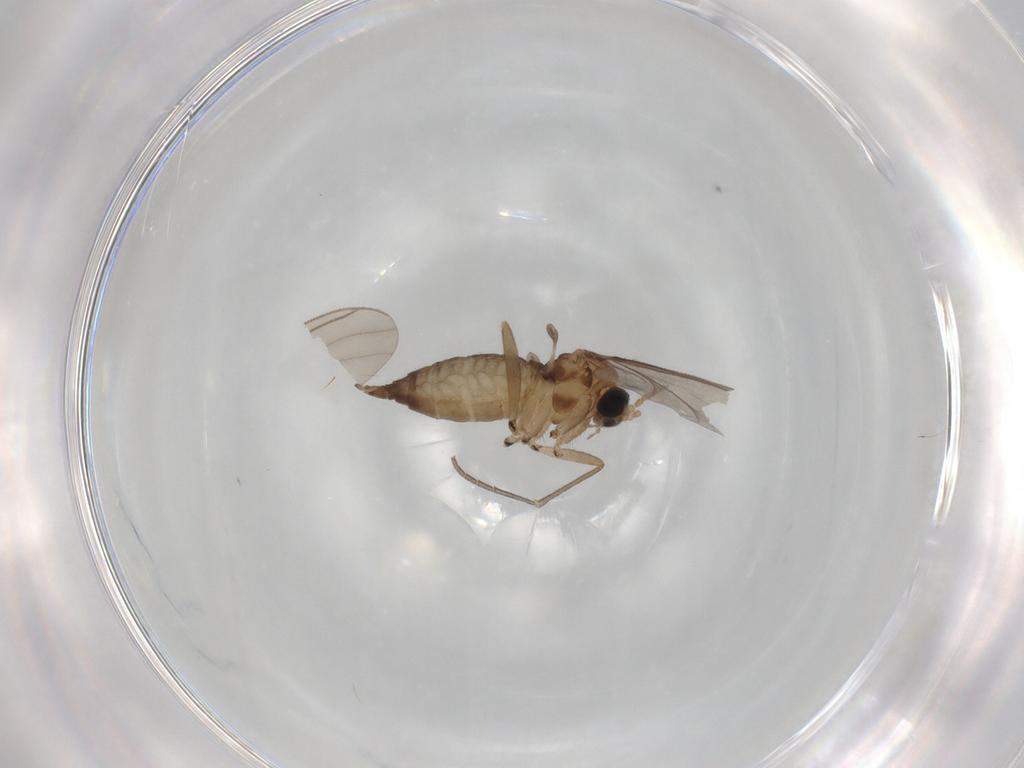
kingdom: Animalia
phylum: Arthropoda
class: Insecta
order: Diptera
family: Sciaridae
